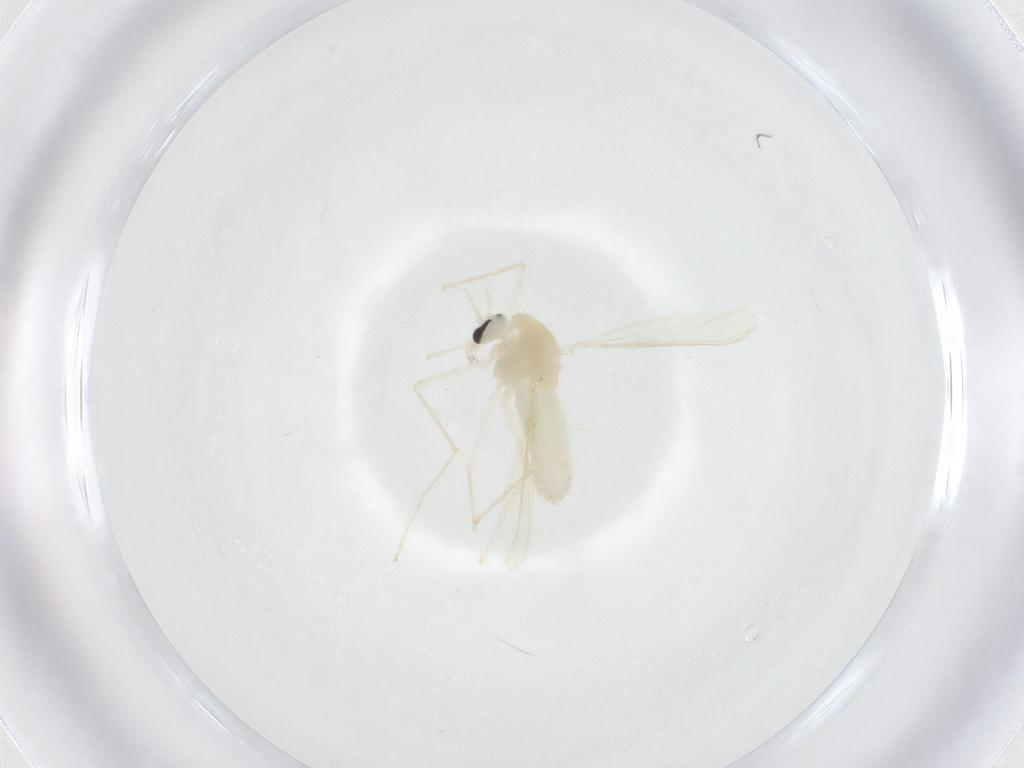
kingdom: Animalia
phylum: Arthropoda
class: Insecta
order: Diptera
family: Chironomidae
